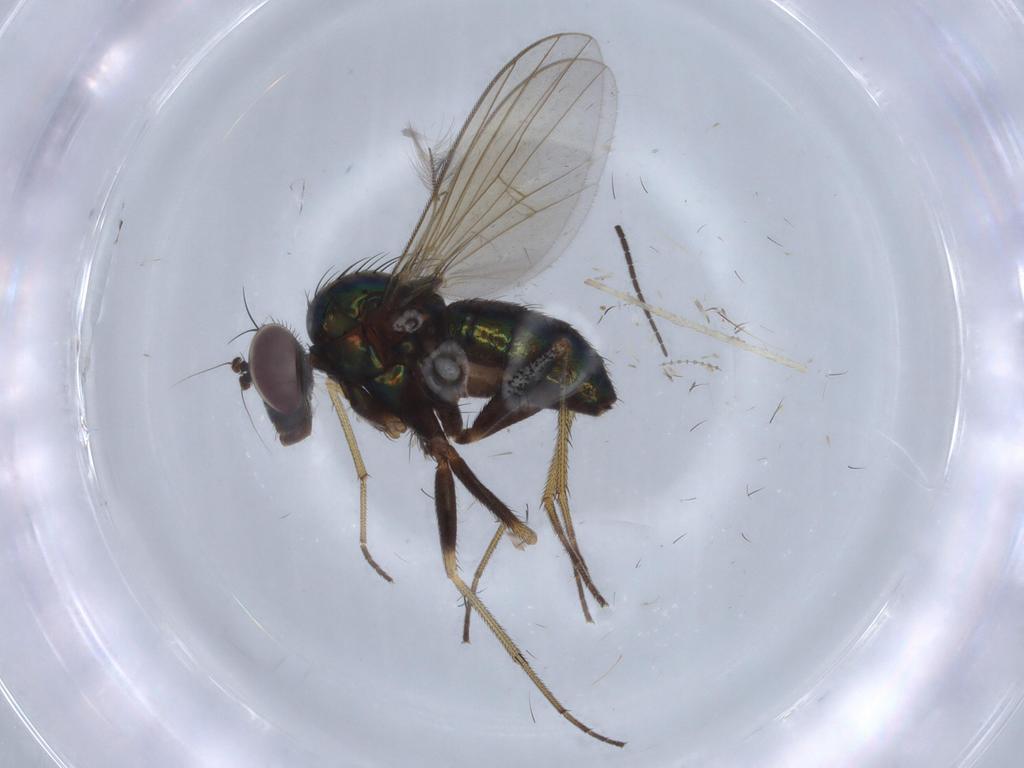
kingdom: Animalia
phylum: Arthropoda
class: Insecta
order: Diptera
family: Dolichopodidae
